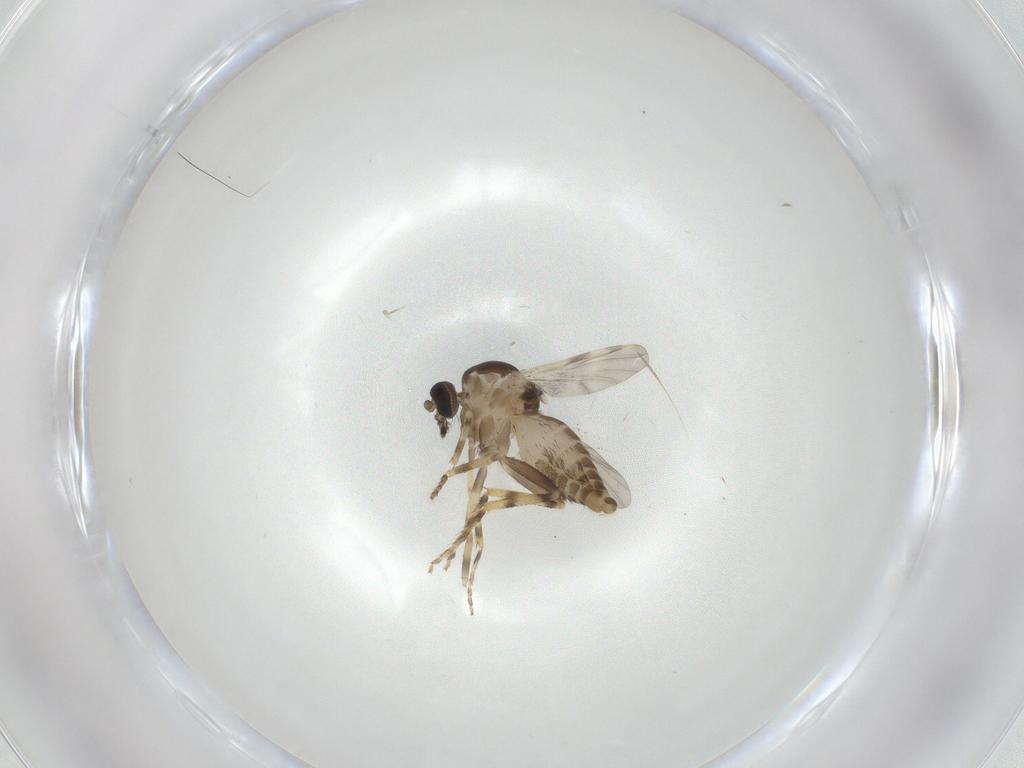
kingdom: Animalia
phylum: Arthropoda
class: Insecta
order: Diptera
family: Ceratopogonidae
